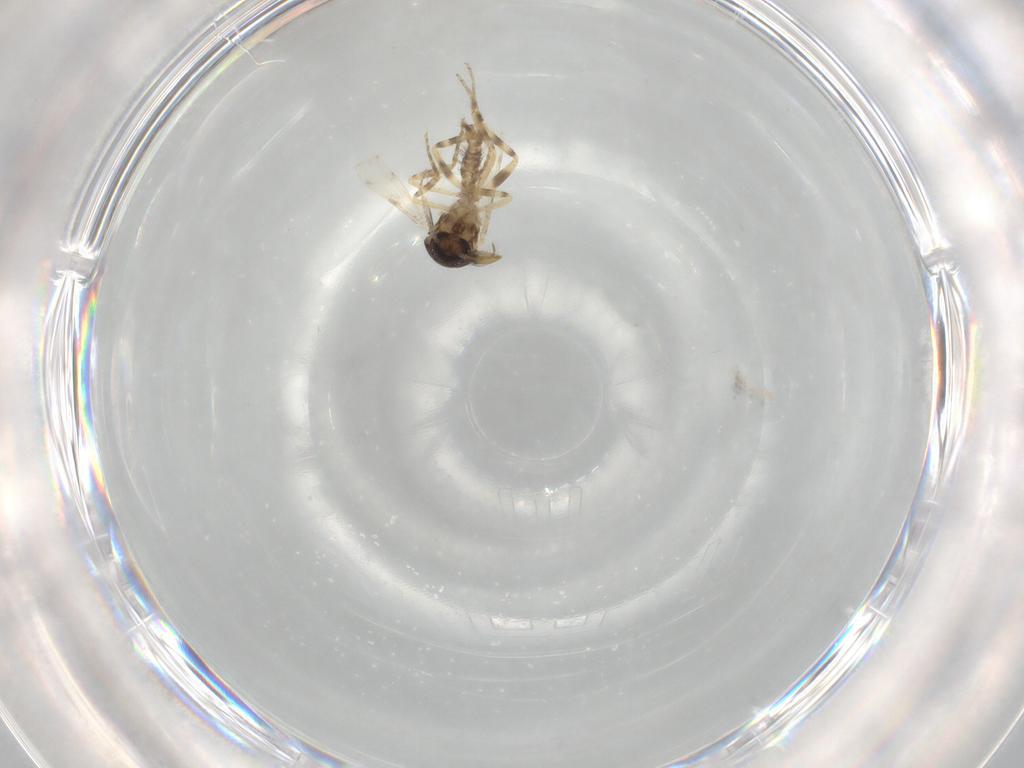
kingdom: Animalia
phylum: Arthropoda
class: Insecta
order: Diptera
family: Ceratopogonidae
